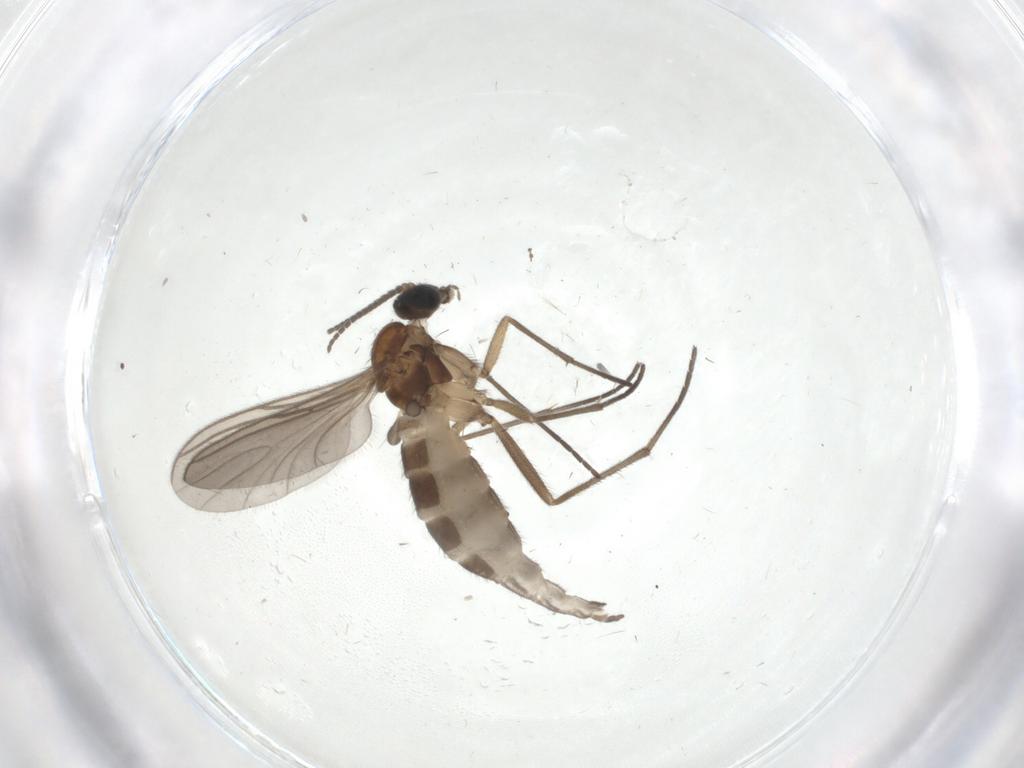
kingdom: Animalia
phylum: Arthropoda
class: Insecta
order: Diptera
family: Sciaridae
